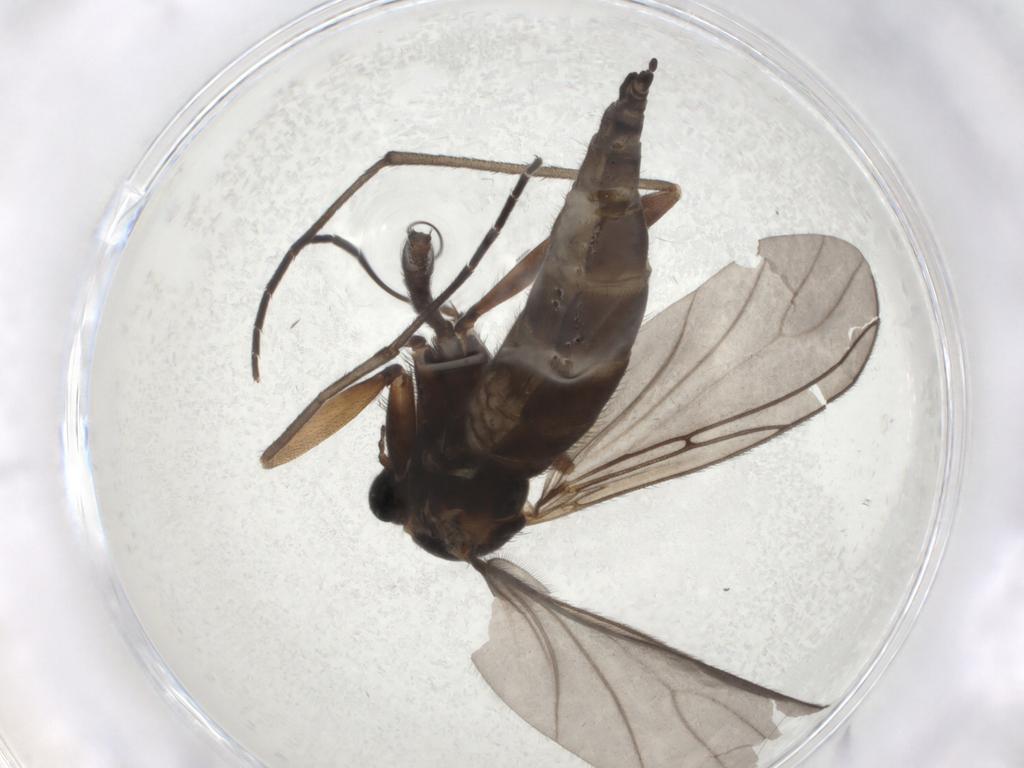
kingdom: Animalia
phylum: Arthropoda
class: Insecta
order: Diptera
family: Sciaridae
